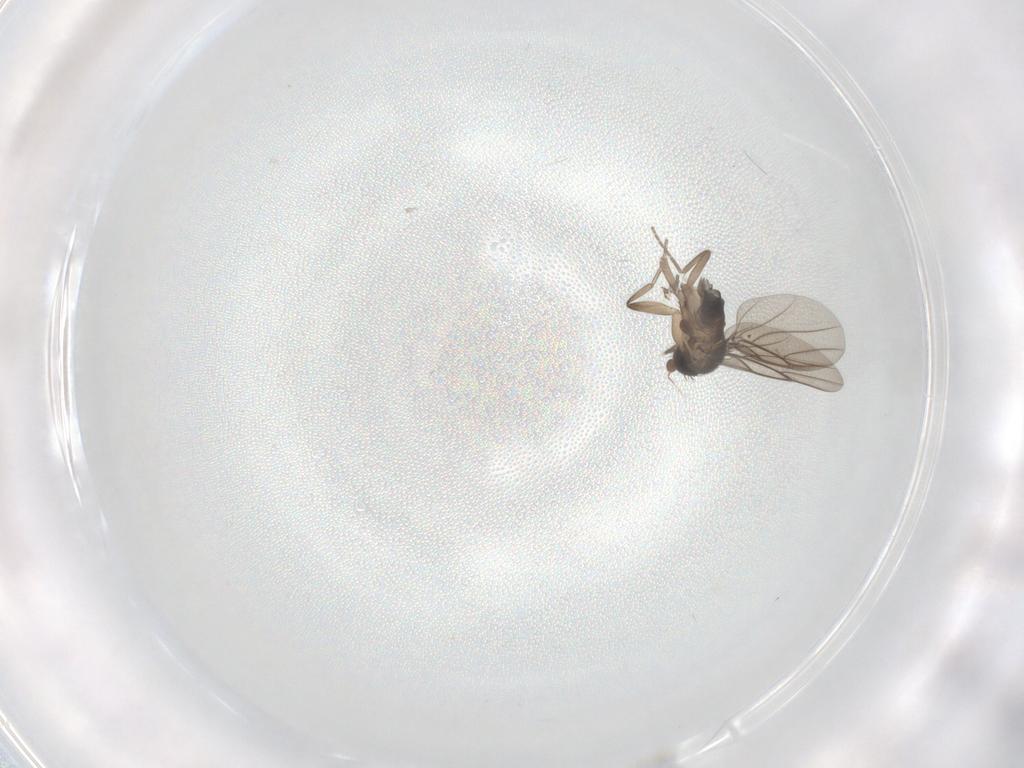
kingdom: Animalia
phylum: Arthropoda
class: Insecta
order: Diptera
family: Phoridae
